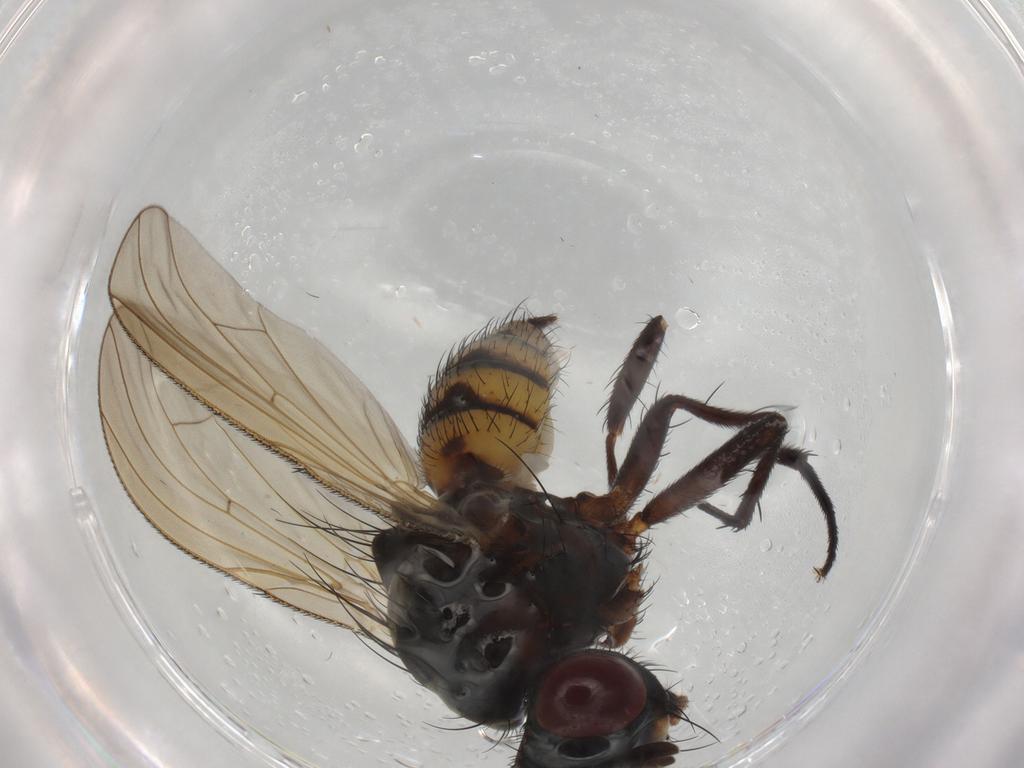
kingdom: Animalia
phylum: Arthropoda
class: Insecta
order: Diptera
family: Anthomyiidae
